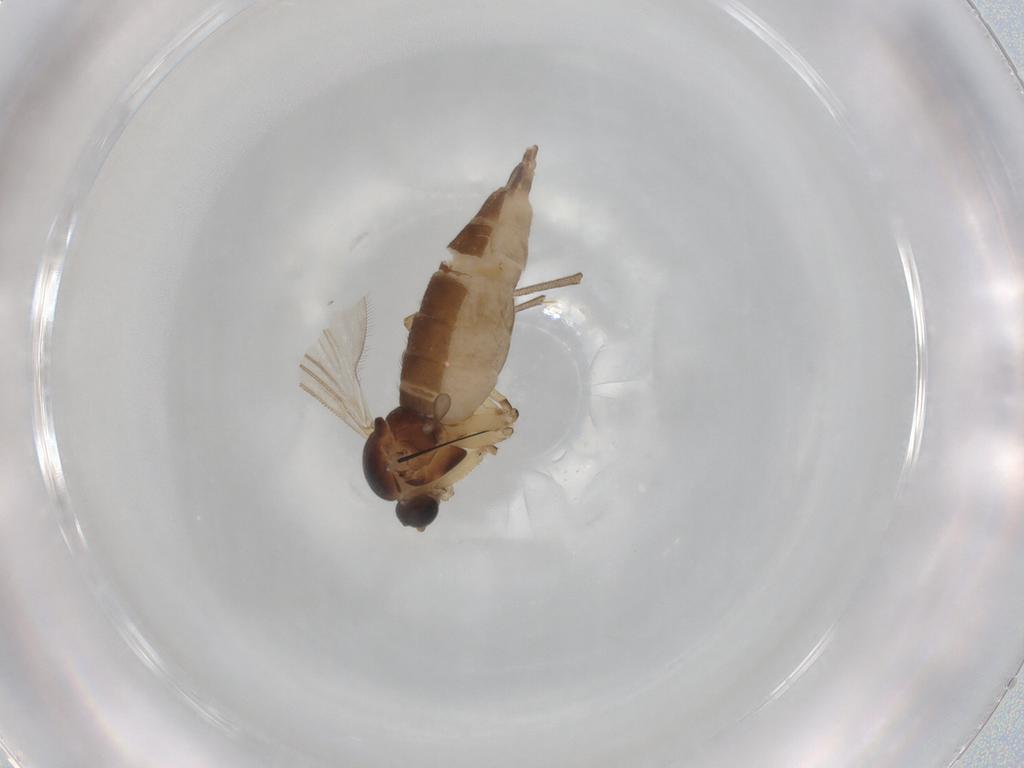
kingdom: Animalia
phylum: Arthropoda
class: Insecta
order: Diptera
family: Sciaridae
